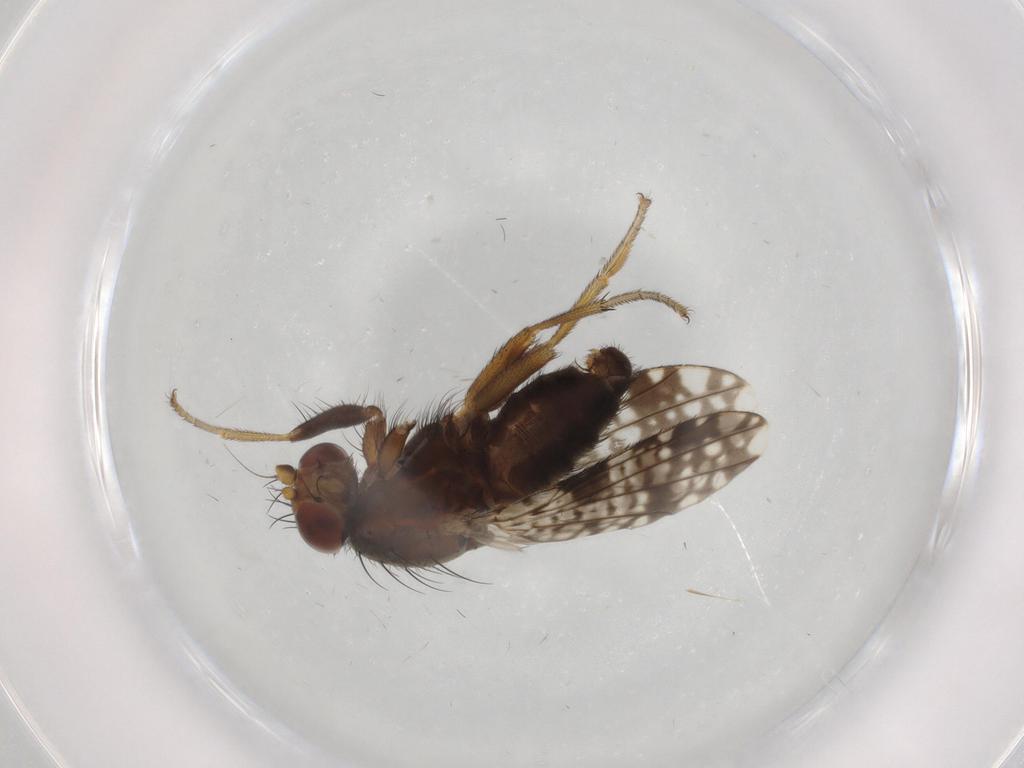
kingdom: Animalia
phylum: Arthropoda
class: Insecta
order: Diptera
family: Tephritidae
